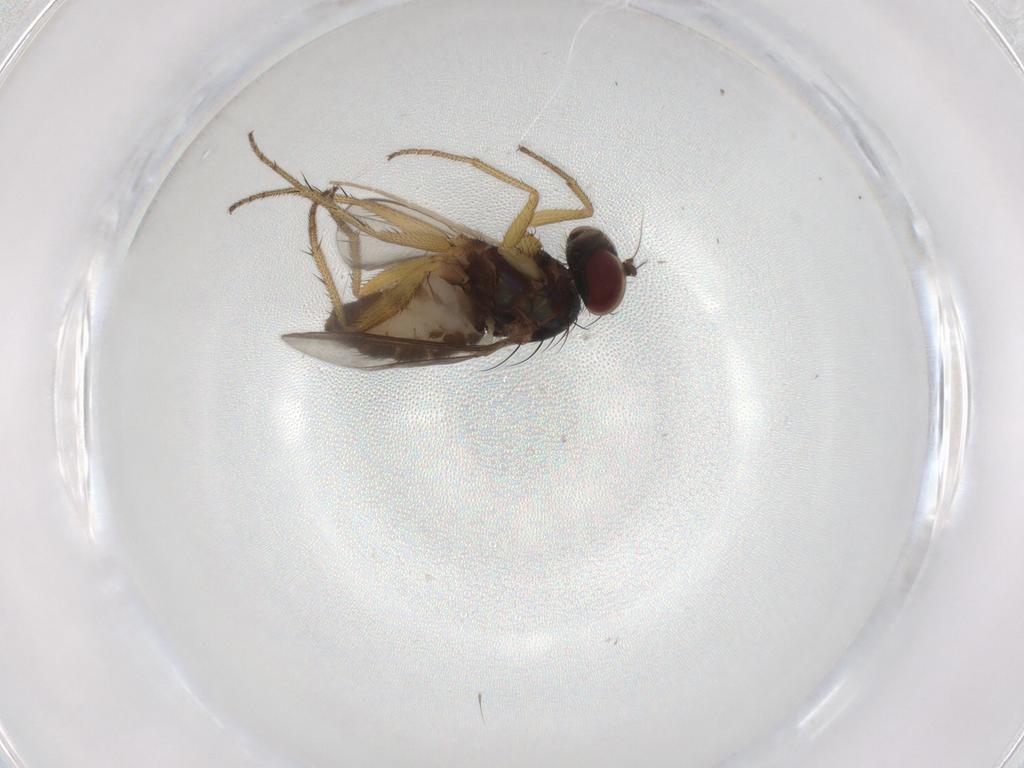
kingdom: Animalia
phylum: Arthropoda
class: Insecta
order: Diptera
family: Dolichopodidae
